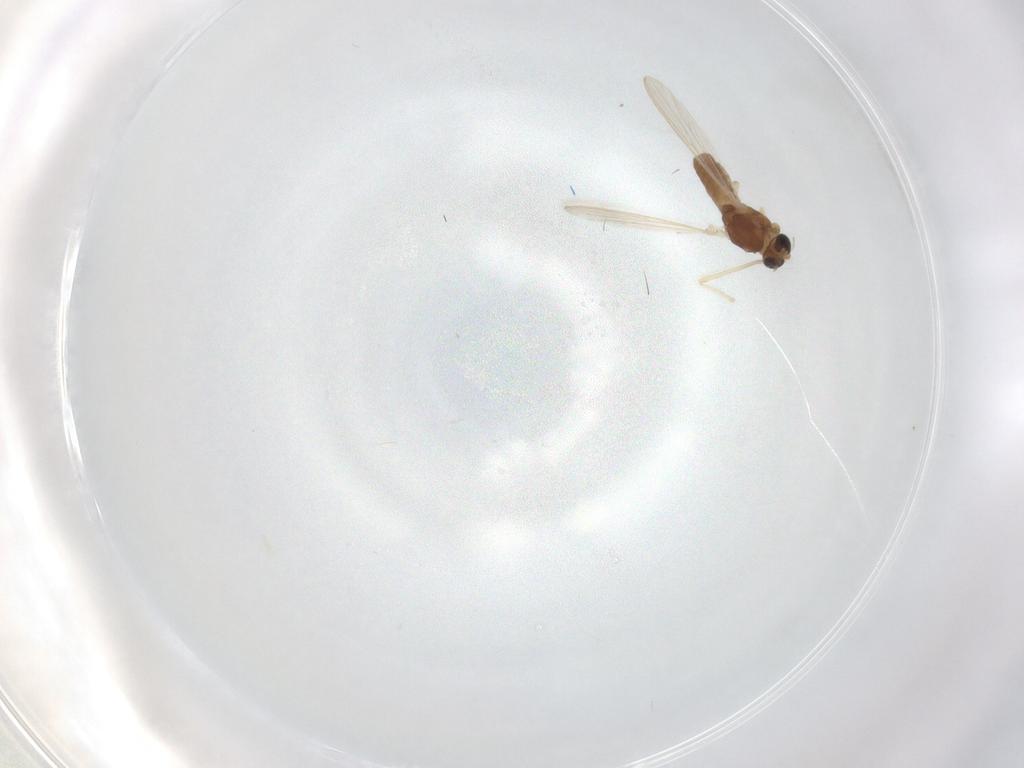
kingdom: Animalia
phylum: Arthropoda
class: Insecta
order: Diptera
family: Chironomidae
